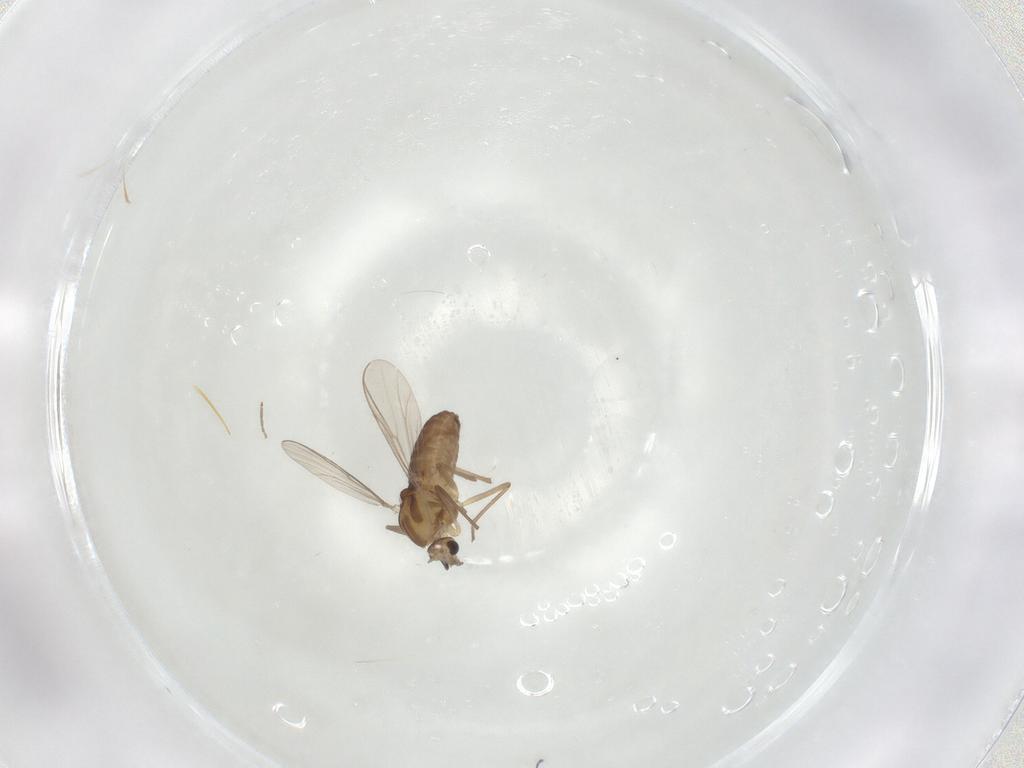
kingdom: Animalia
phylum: Arthropoda
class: Insecta
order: Diptera
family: Chironomidae
